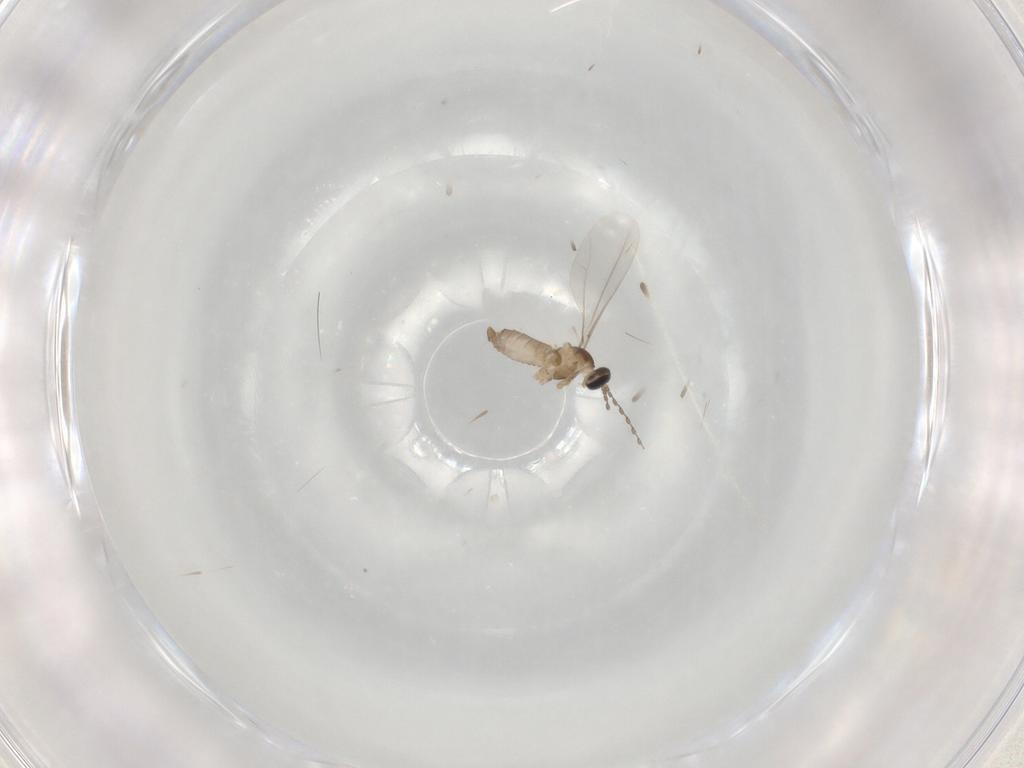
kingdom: Animalia
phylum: Arthropoda
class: Insecta
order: Diptera
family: Cecidomyiidae
